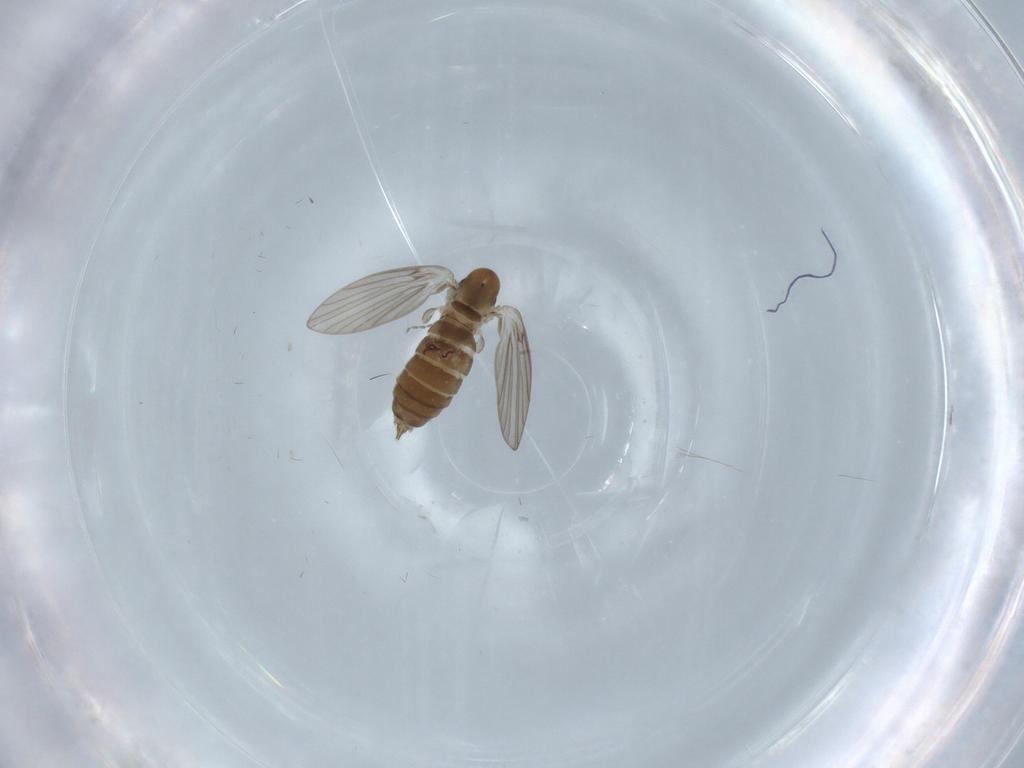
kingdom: Animalia
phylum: Arthropoda
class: Insecta
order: Diptera
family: Psychodidae
